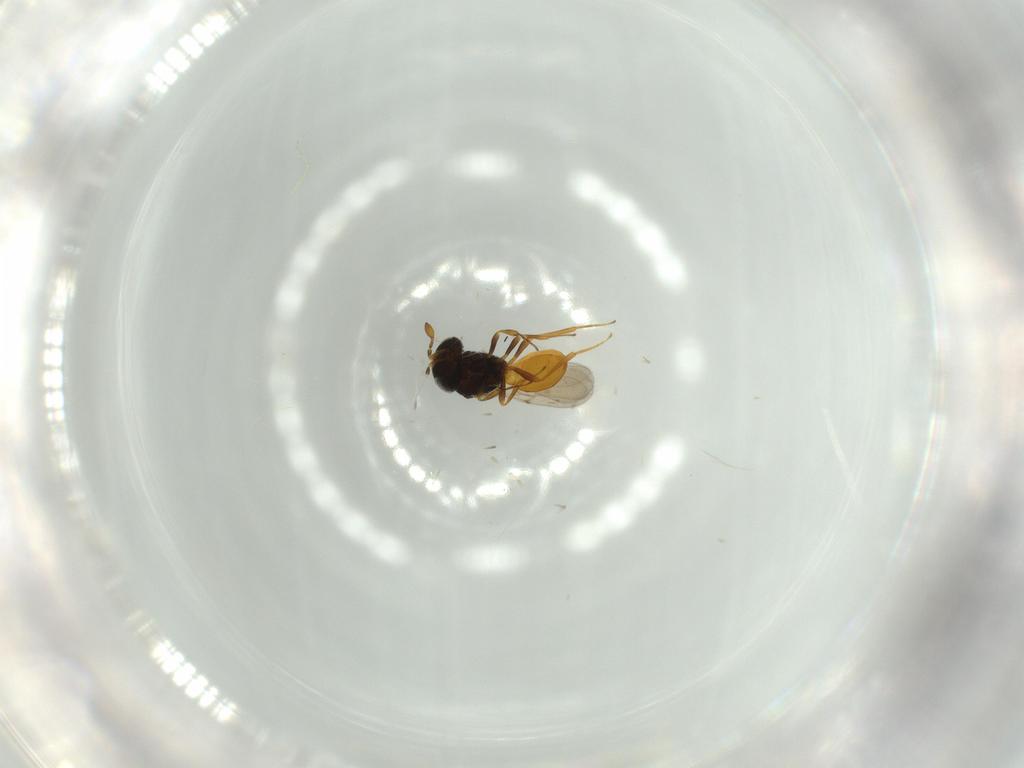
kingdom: Animalia
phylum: Arthropoda
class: Insecta
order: Hymenoptera
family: Scelionidae
